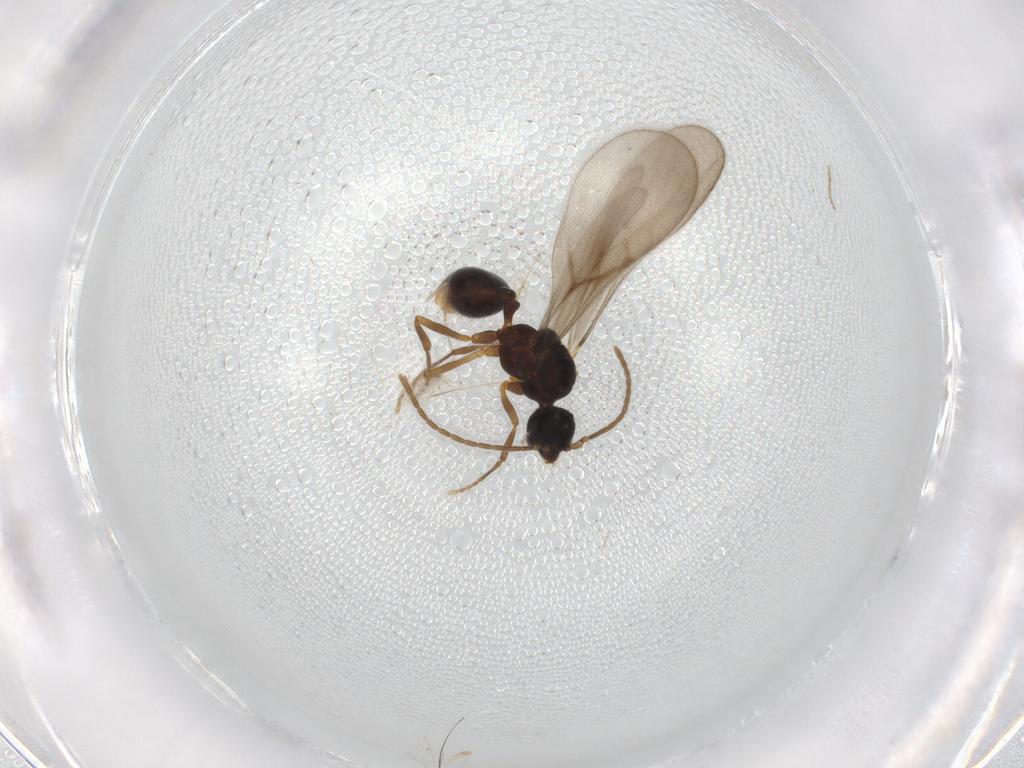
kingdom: Animalia
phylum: Arthropoda
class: Insecta
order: Hymenoptera
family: Formicidae
